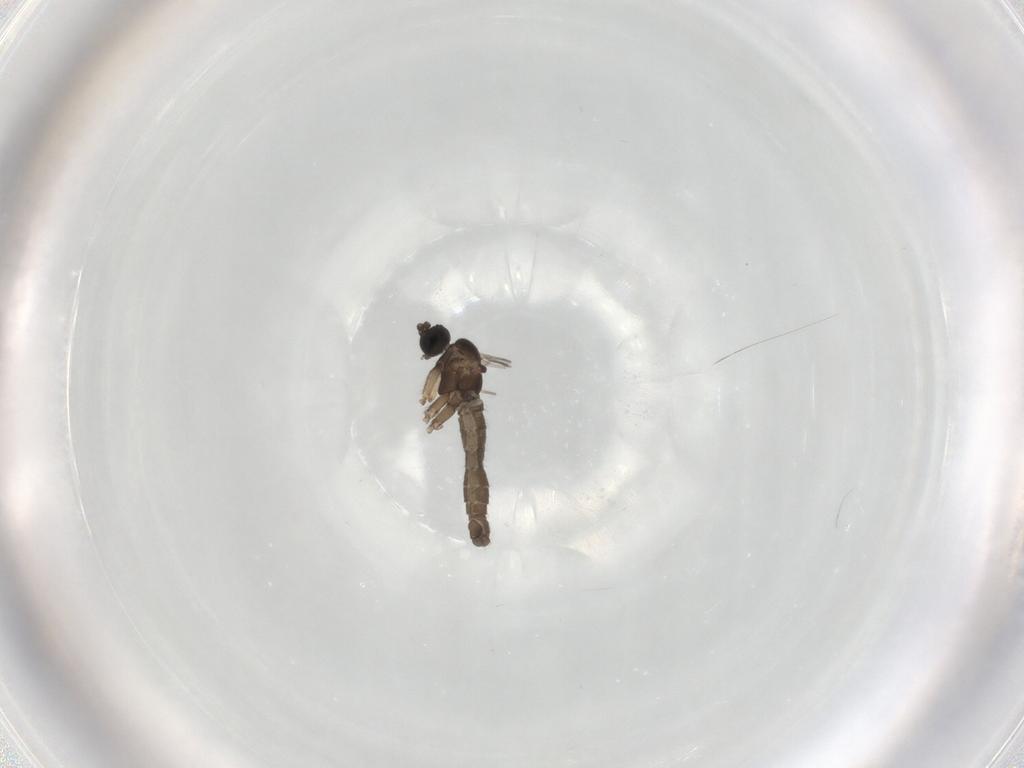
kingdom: Animalia
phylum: Arthropoda
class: Insecta
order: Diptera
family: Sciaridae
